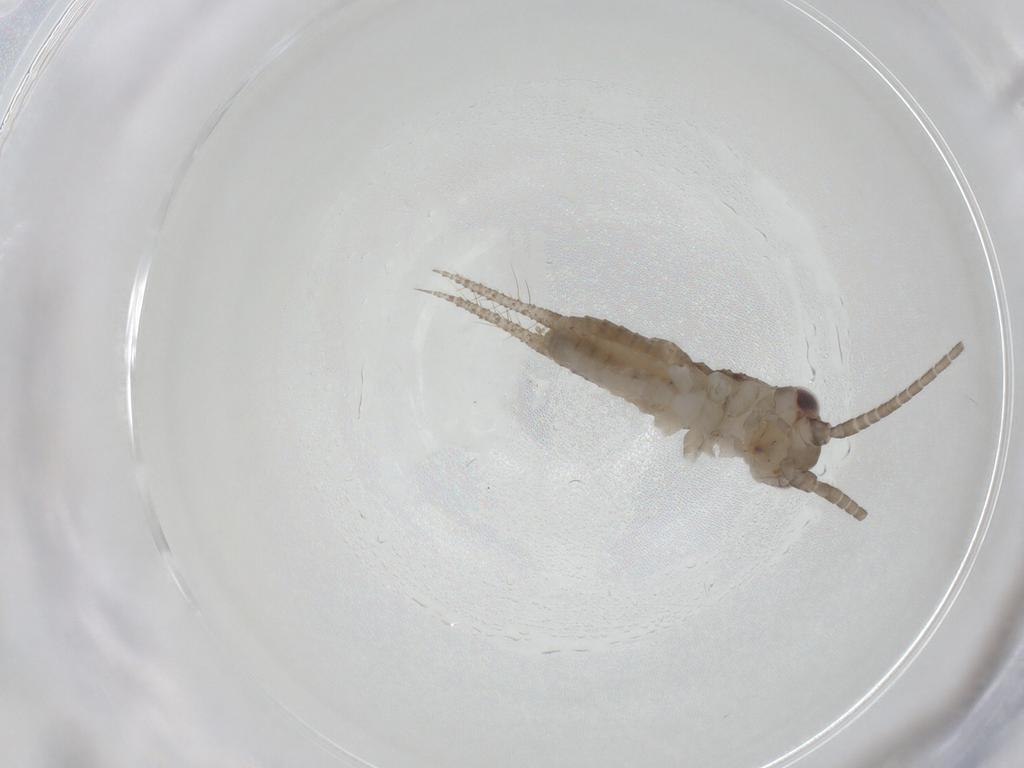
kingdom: Animalia
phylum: Arthropoda
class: Insecta
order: Orthoptera
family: Gryllidae
